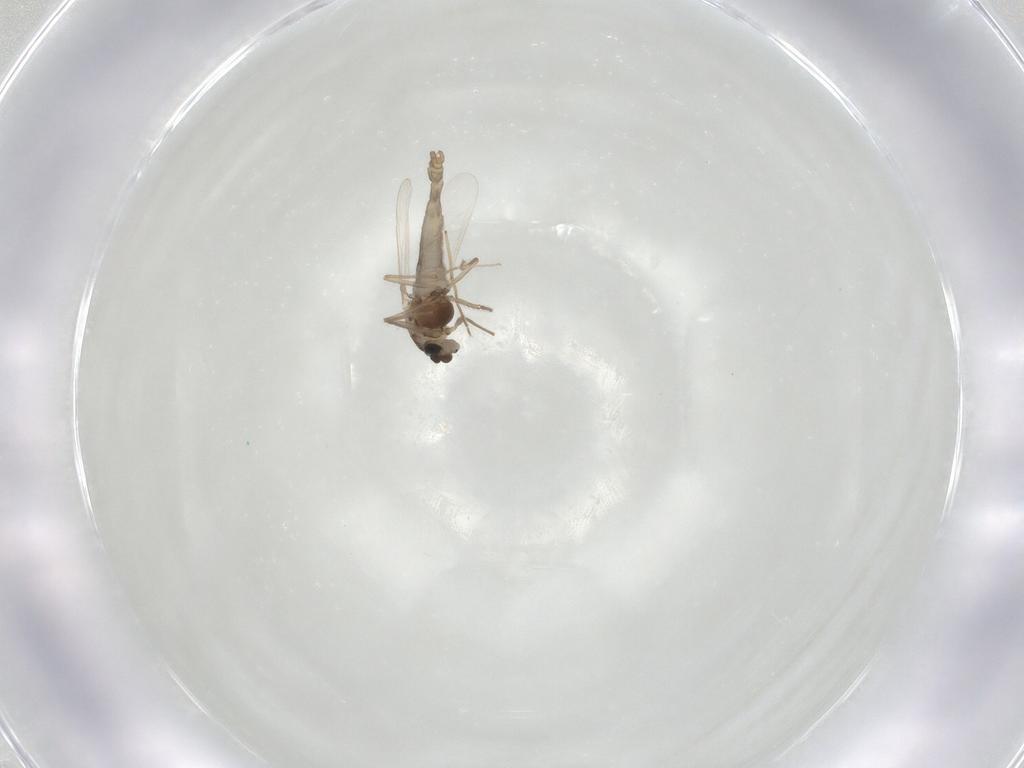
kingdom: Animalia
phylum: Arthropoda
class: Insecta
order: Diptera
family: Chironomidae
